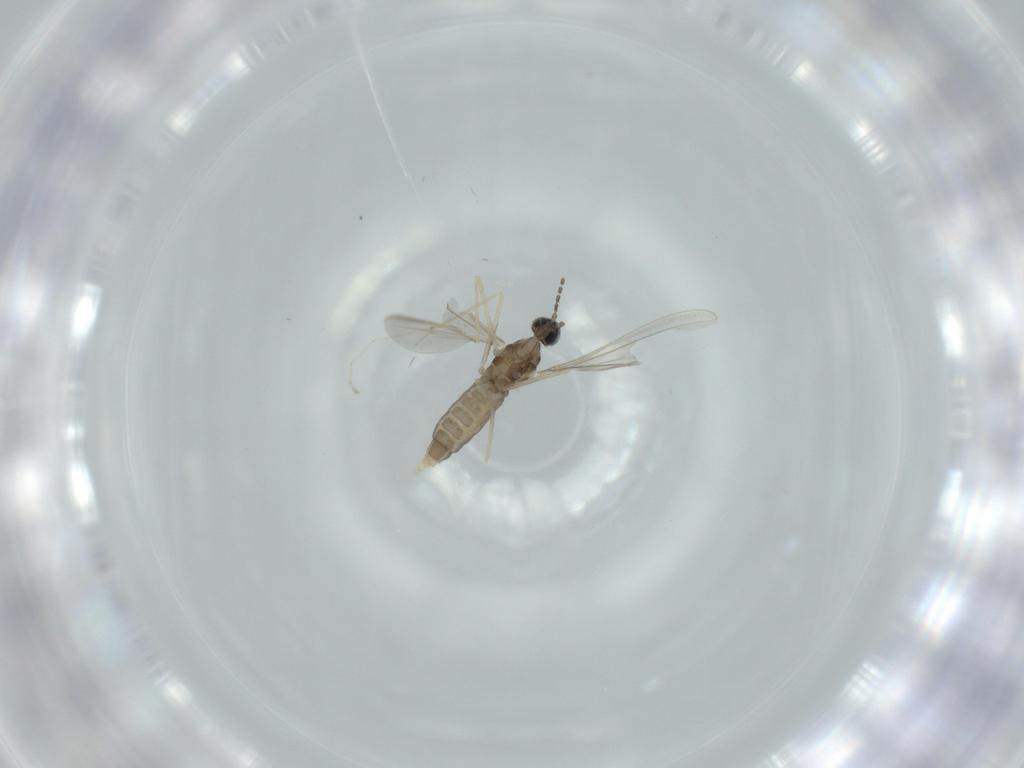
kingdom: Animalia
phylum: Arthropoda
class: Insecta
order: Diptera
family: Cecidomyiidae
